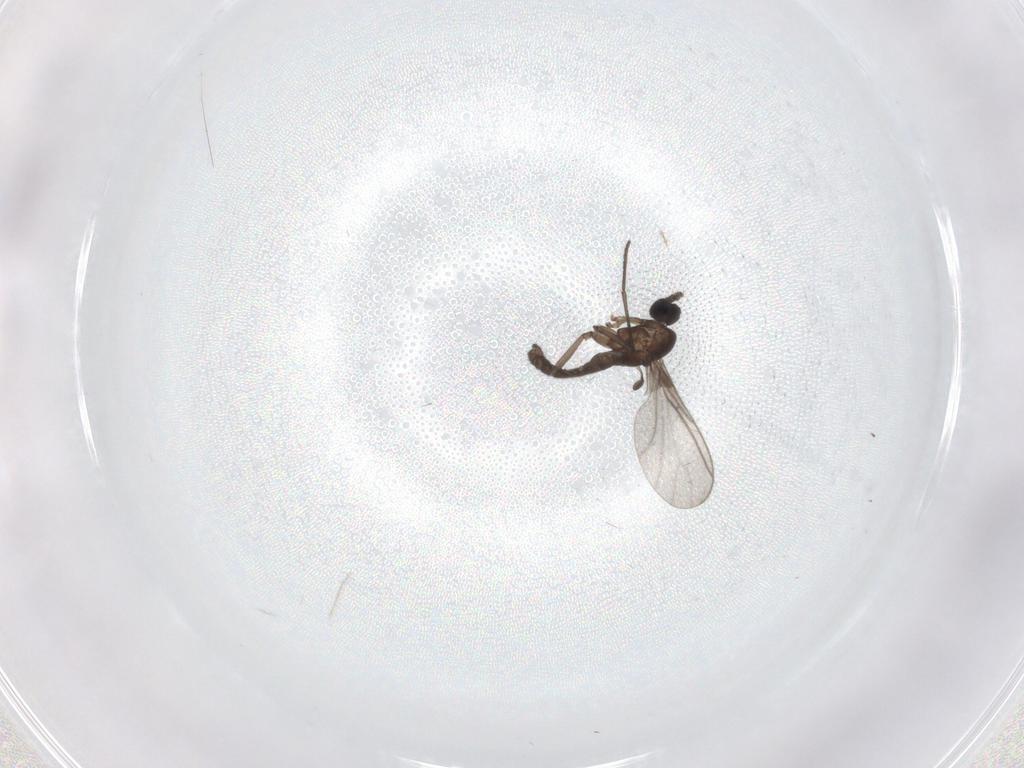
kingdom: Animalia
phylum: Arthropoda
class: Insecta
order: Diptera
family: Sciaridae
